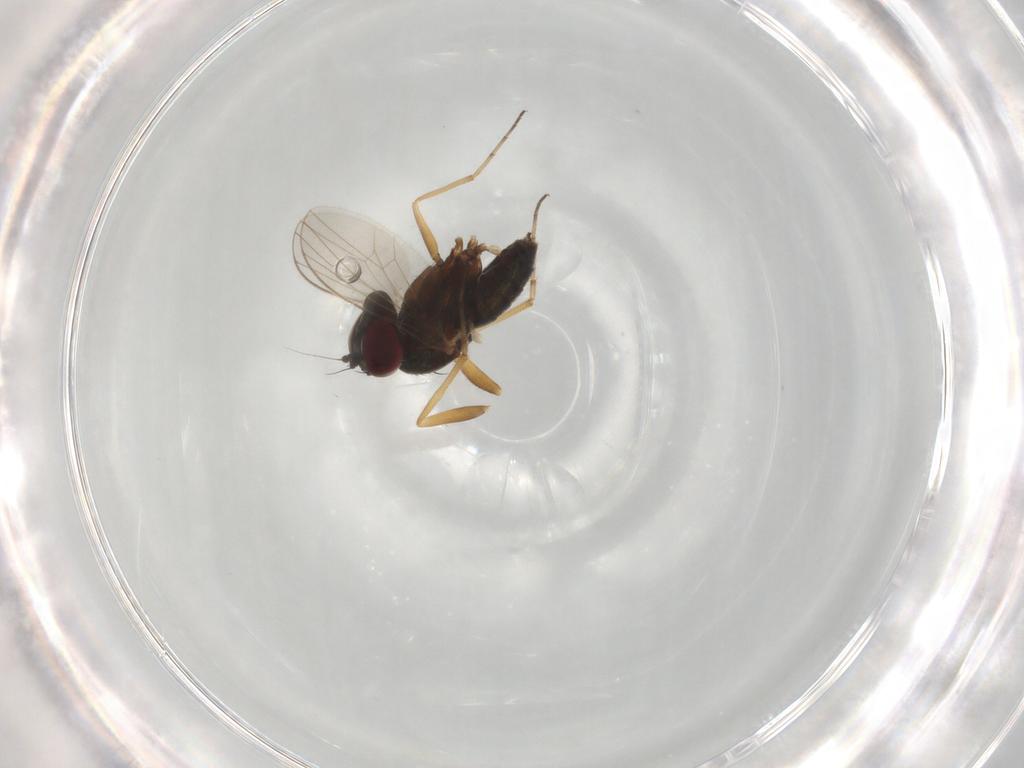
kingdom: Animalia
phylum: Arthropoda
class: Insecta
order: Diptera
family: Dolichopodidae
